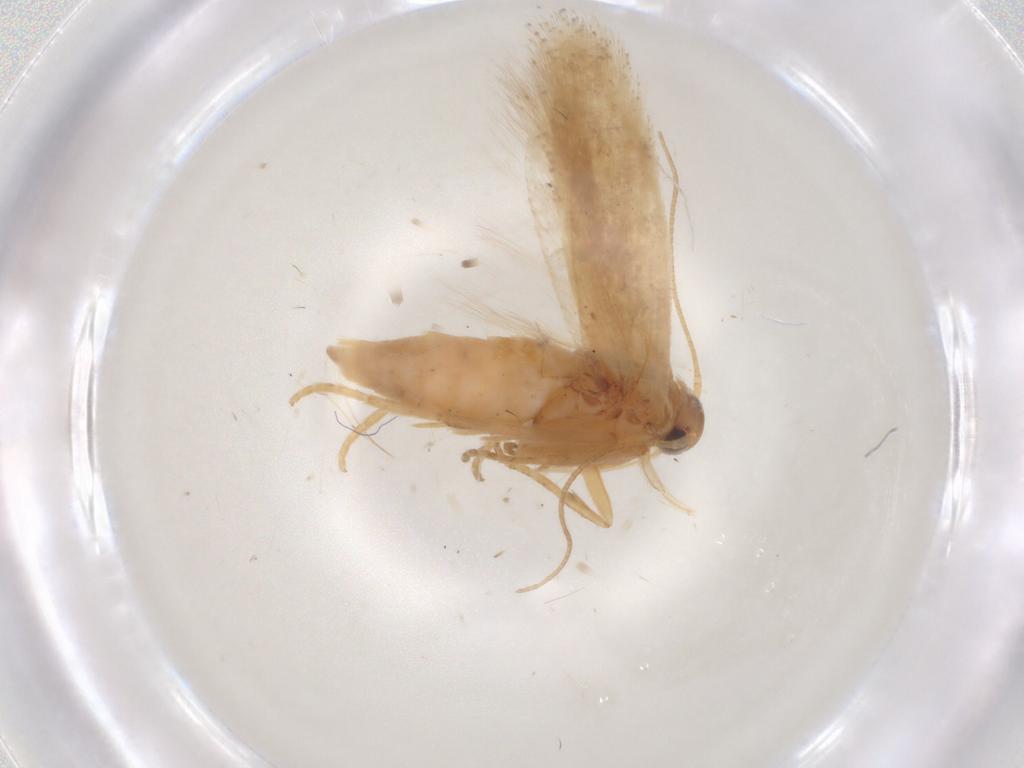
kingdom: Animalia
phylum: Arthropoda
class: Insecta
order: Lepidoptera
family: Gelechiidae
